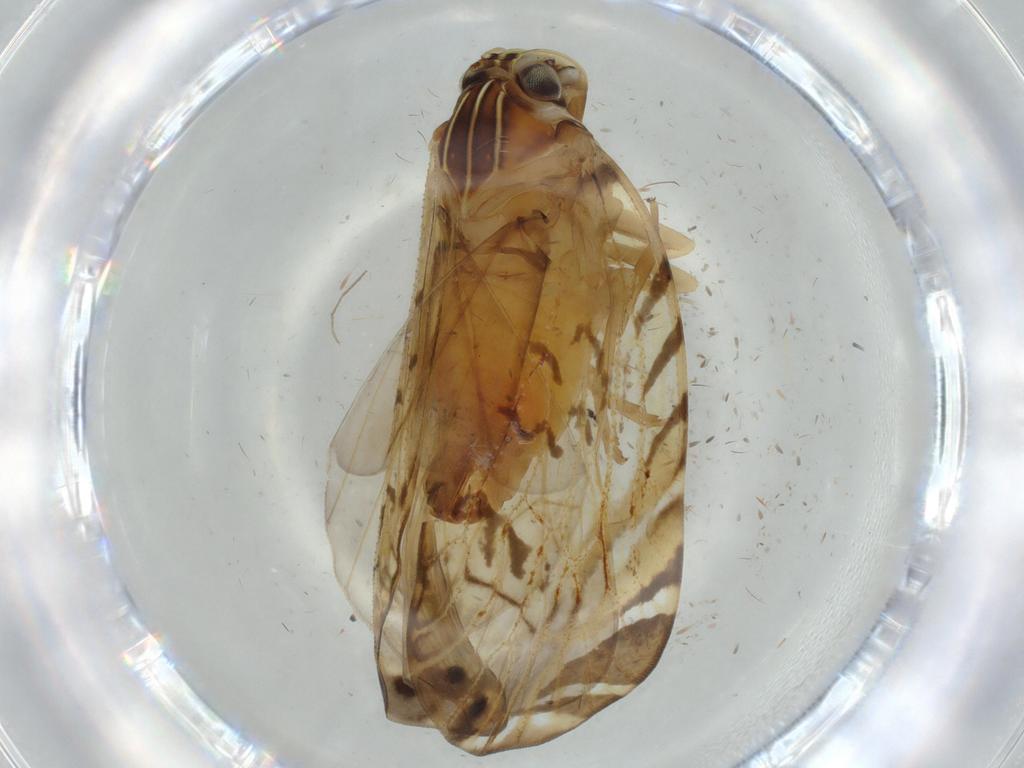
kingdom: Animalia
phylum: Arthropoda
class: Insecta
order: Hemiptera
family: Cixiidae
